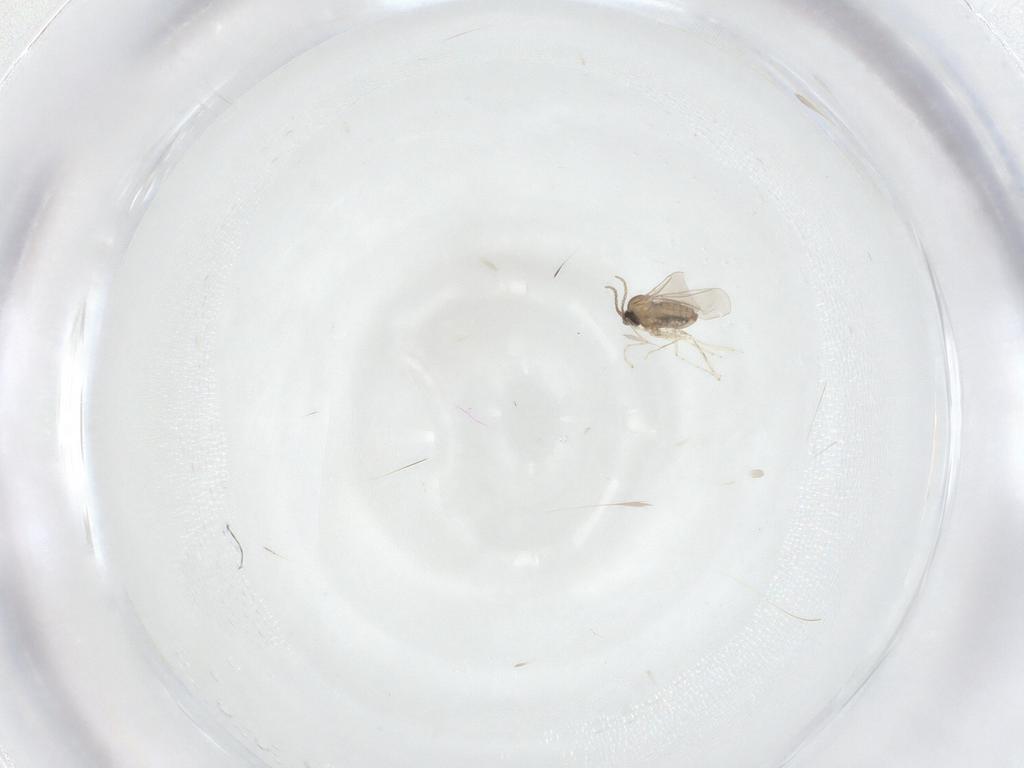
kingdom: Animalia
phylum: Arthropoda
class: Insecta
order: Diptera
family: Cecidomyiidae
